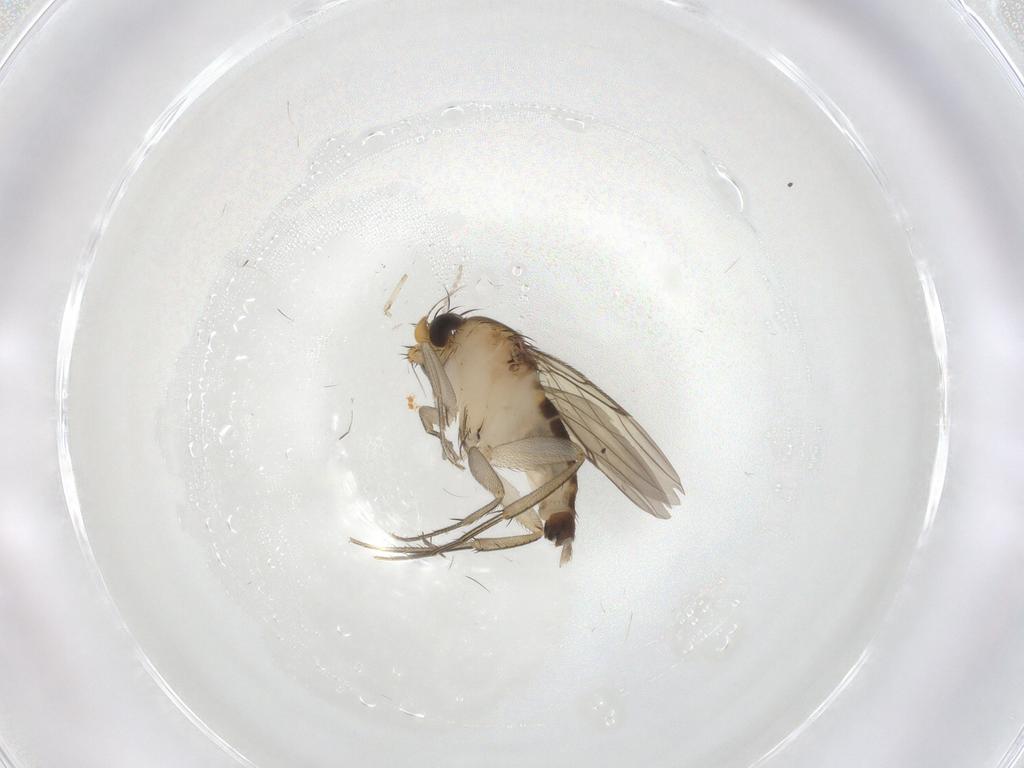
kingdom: Animalia
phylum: Arthropoda
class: Insecta
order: Diptera
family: Phoridae
